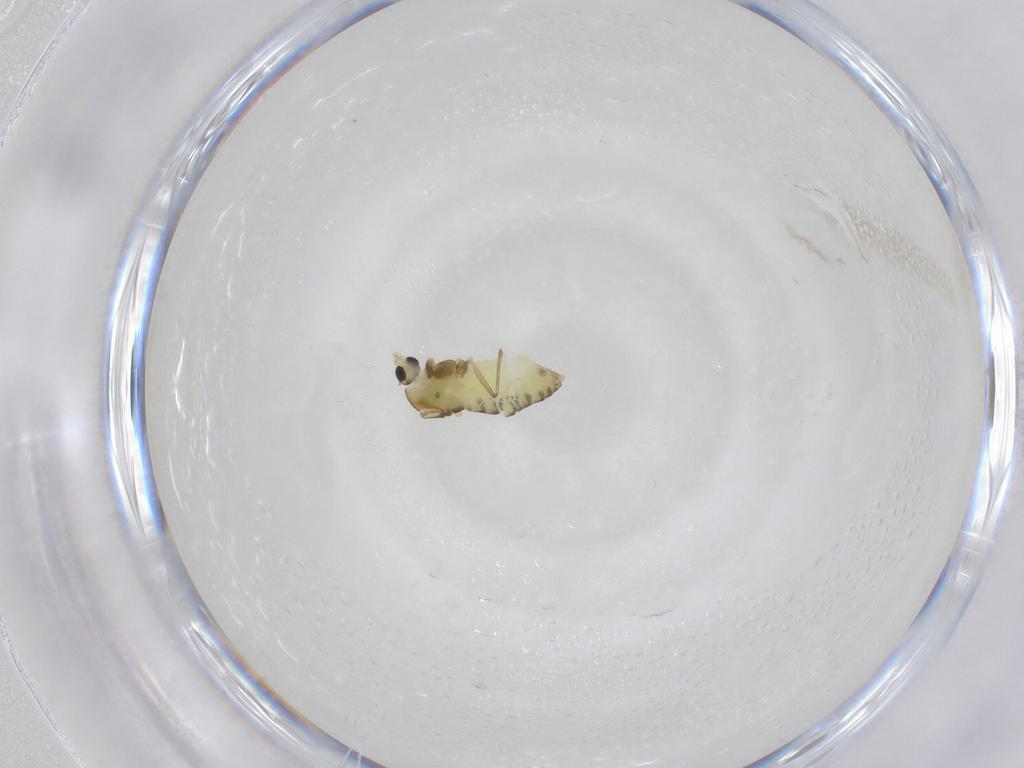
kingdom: Animalia
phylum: Arthropoda
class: Insecta
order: Diptera
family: Chironomidae
